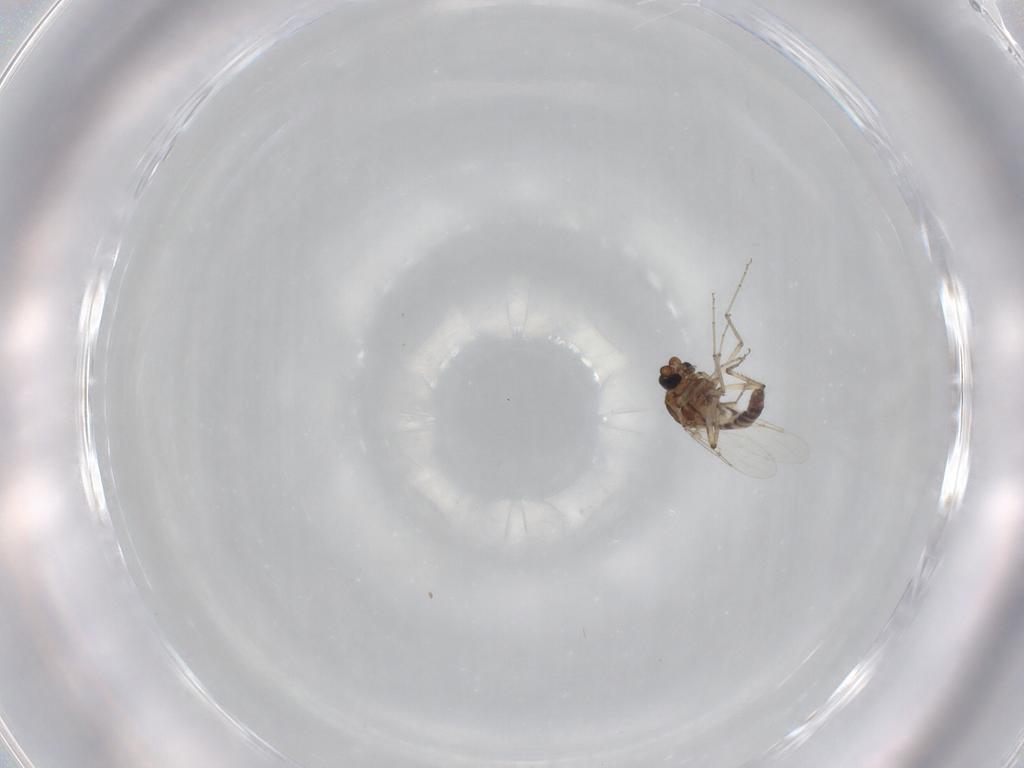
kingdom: Animalia
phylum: Arthropoda
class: Insecta
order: Diptera
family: Ceratopogonidae
